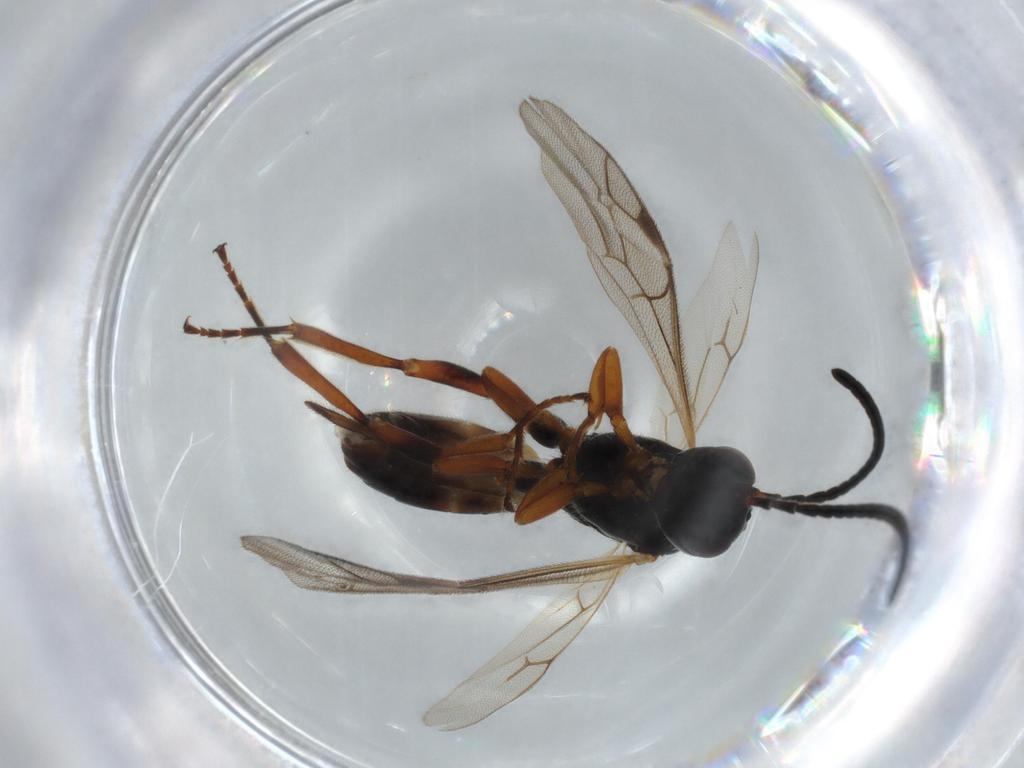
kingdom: Animalia
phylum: Arthropoda
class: Insecta
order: Hymenoptera
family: Ichneumonidae
